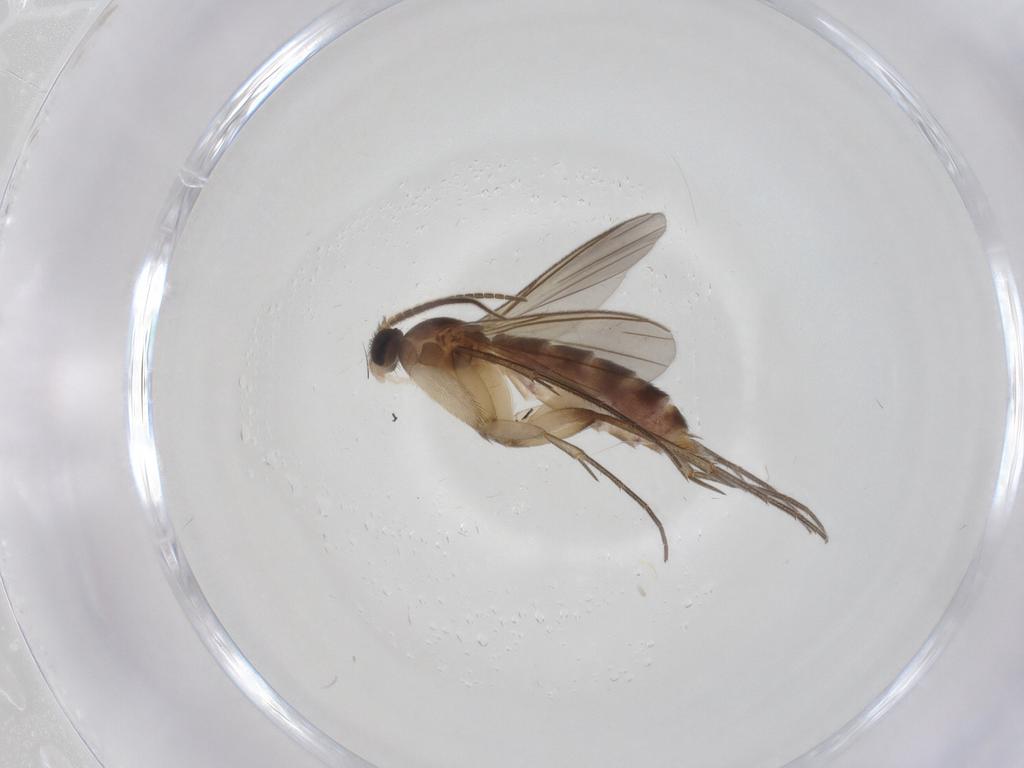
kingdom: Animalia
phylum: Arthropoda
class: Insecta
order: Diptera
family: Mycetophilidae
